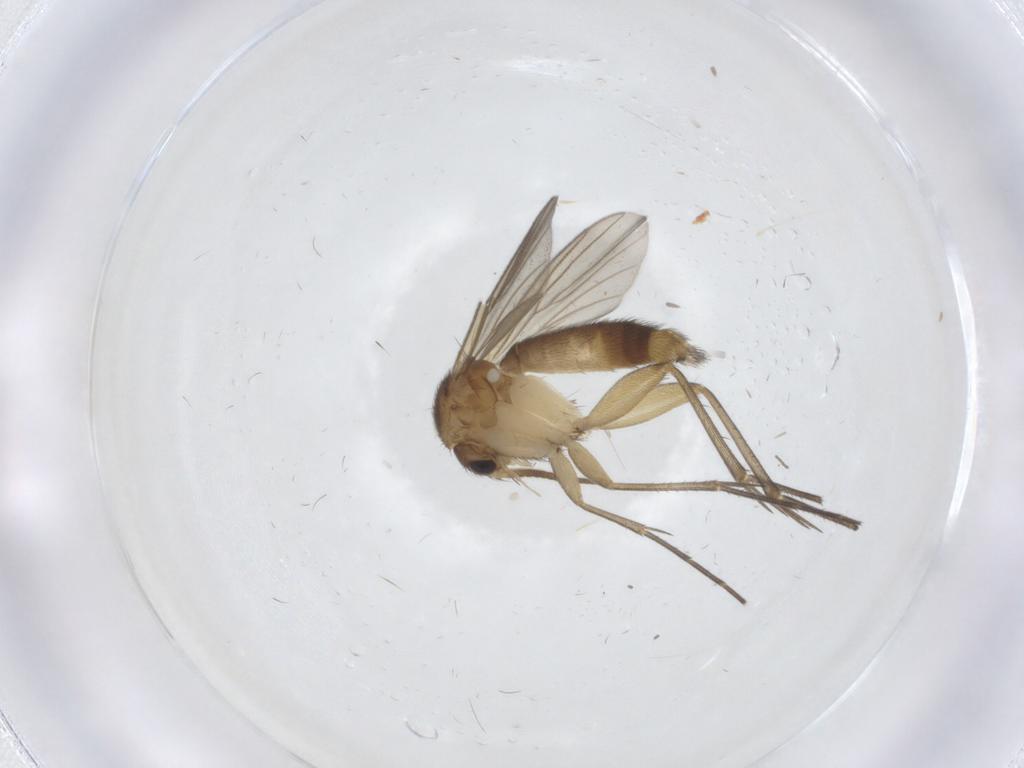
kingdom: Animalia
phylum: Arthropoda
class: Insecta
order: Diptera
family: Mycetophilidae
